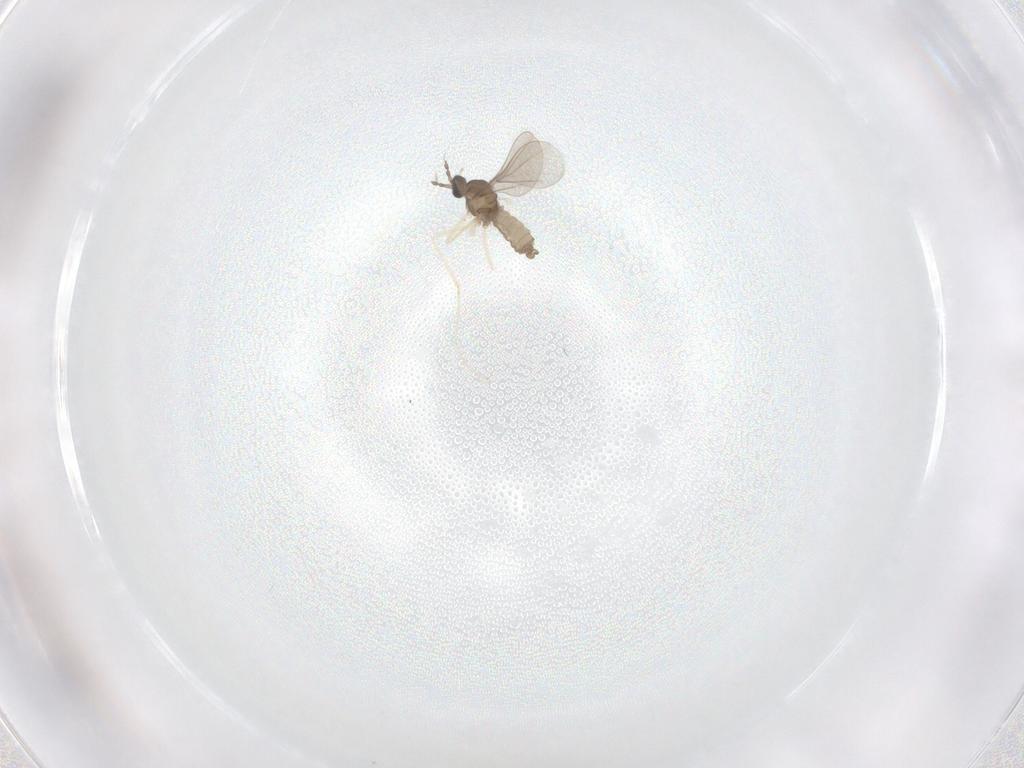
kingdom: Animalia
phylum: Arthropoda
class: Insecta
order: Diptera
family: Cecidomyiidae
